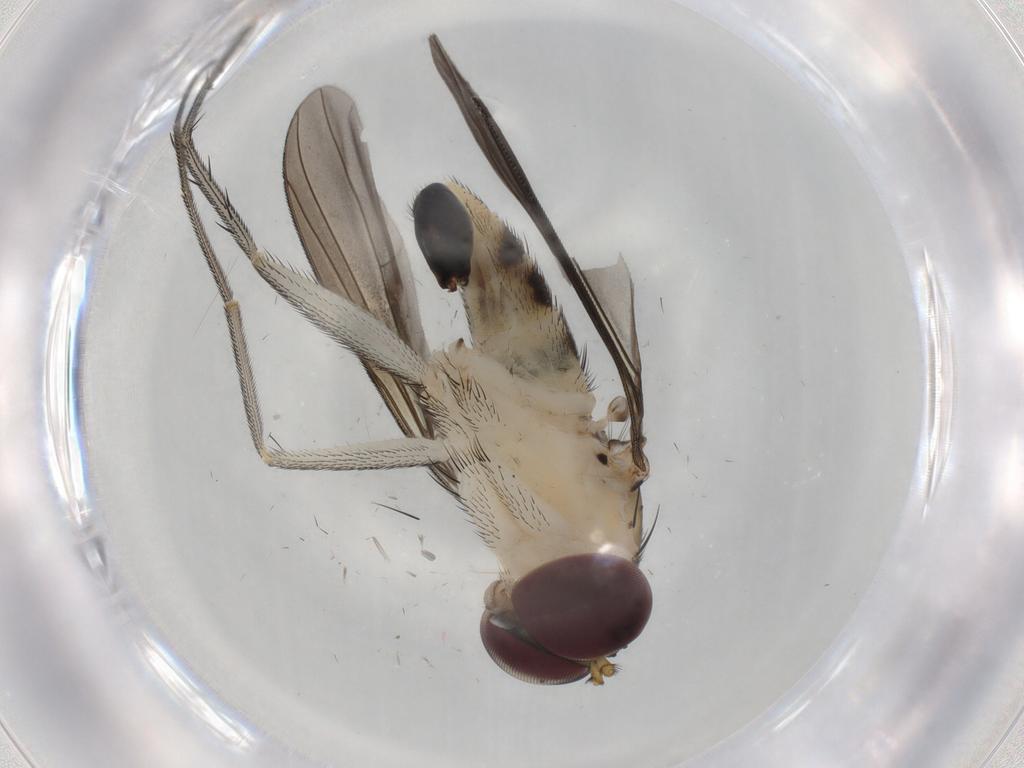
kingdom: Animalia
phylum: Arthropoda
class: Insecta
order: Diptera
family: Dolichopodidae
